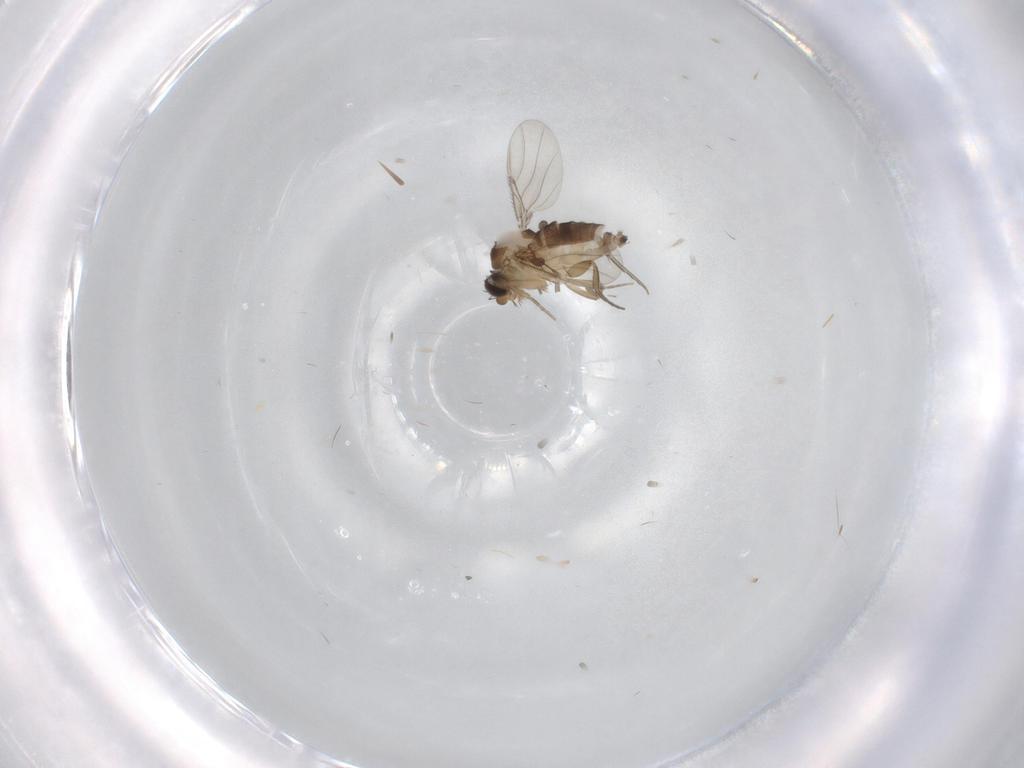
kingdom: Animalia
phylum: Arthropoda
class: Insecta
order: Diptera
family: Phoridae
